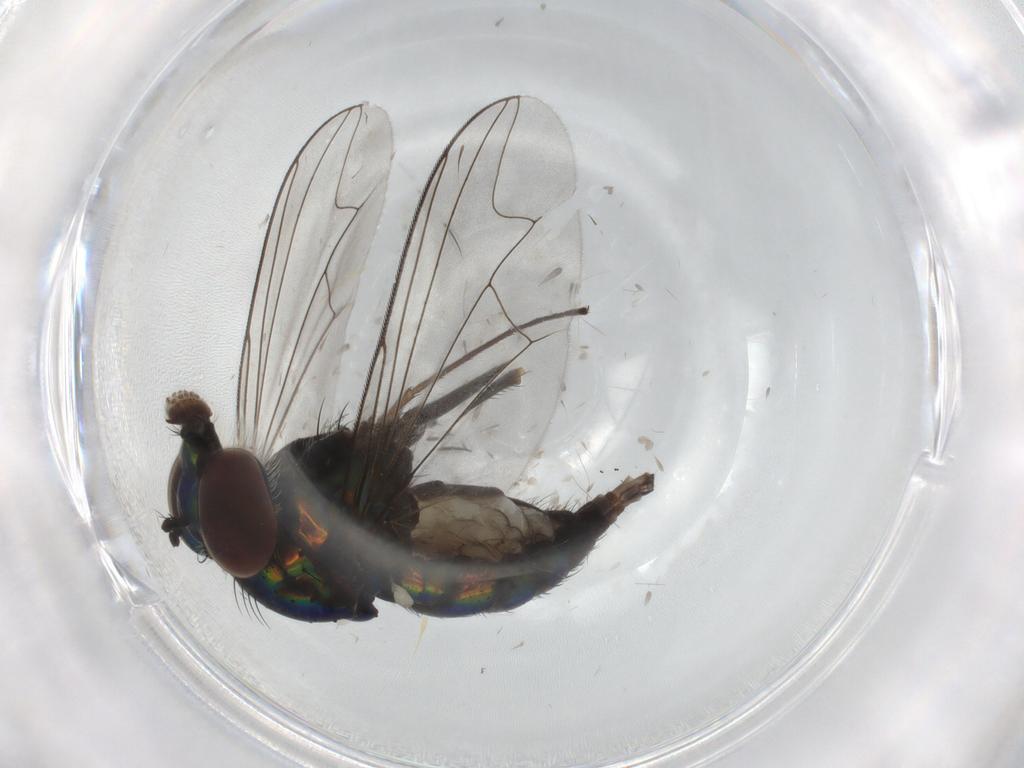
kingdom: Animalia
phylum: Arthropoda
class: Insecta
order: Diptera
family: Dolichopodidae
